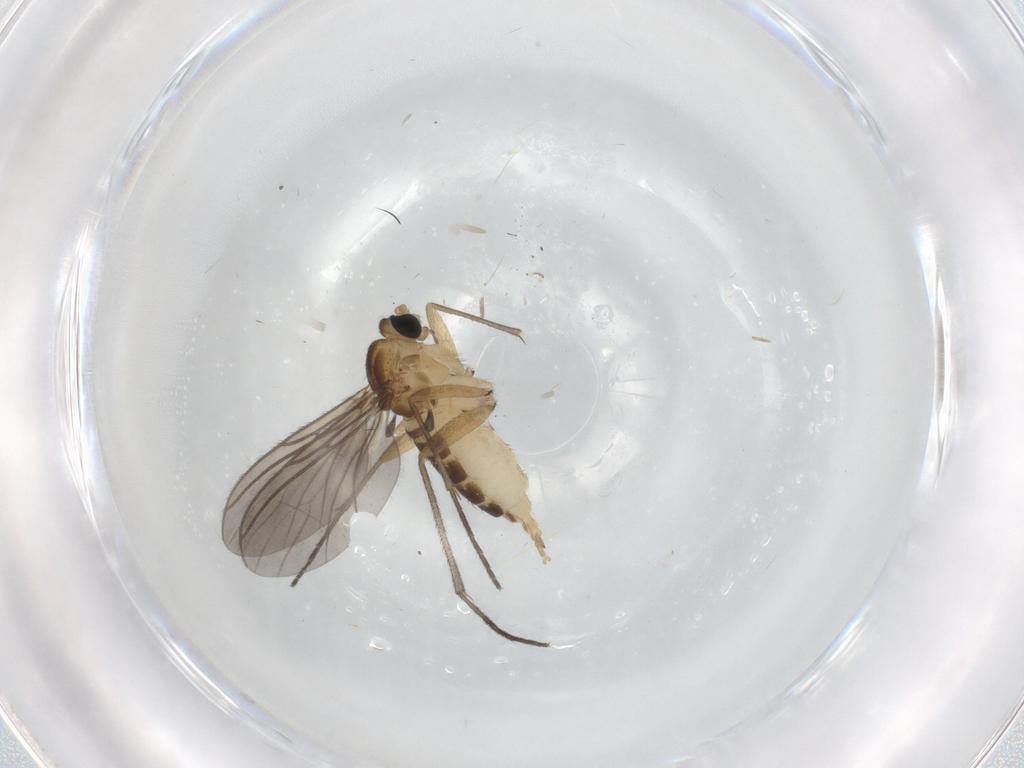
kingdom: Animalia
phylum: Arthropoda
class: Insecta
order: Diptera
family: Sciaridae
